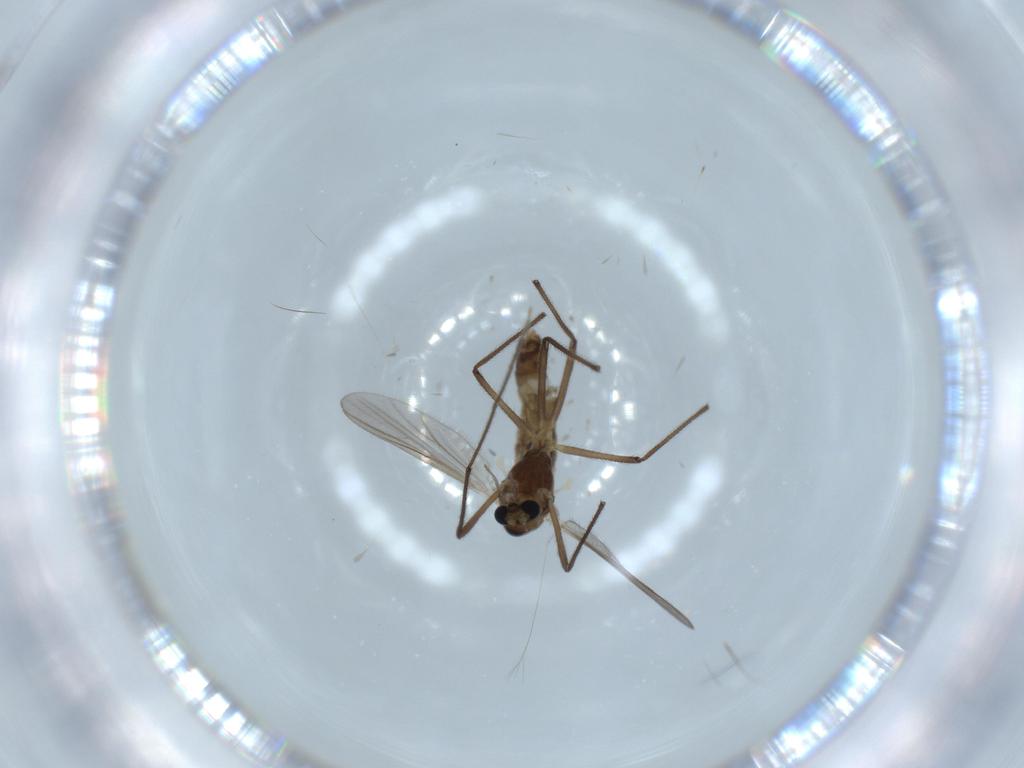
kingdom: Animalia
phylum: Arthropoda
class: Insecta
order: Diptera
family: Chironomidae
